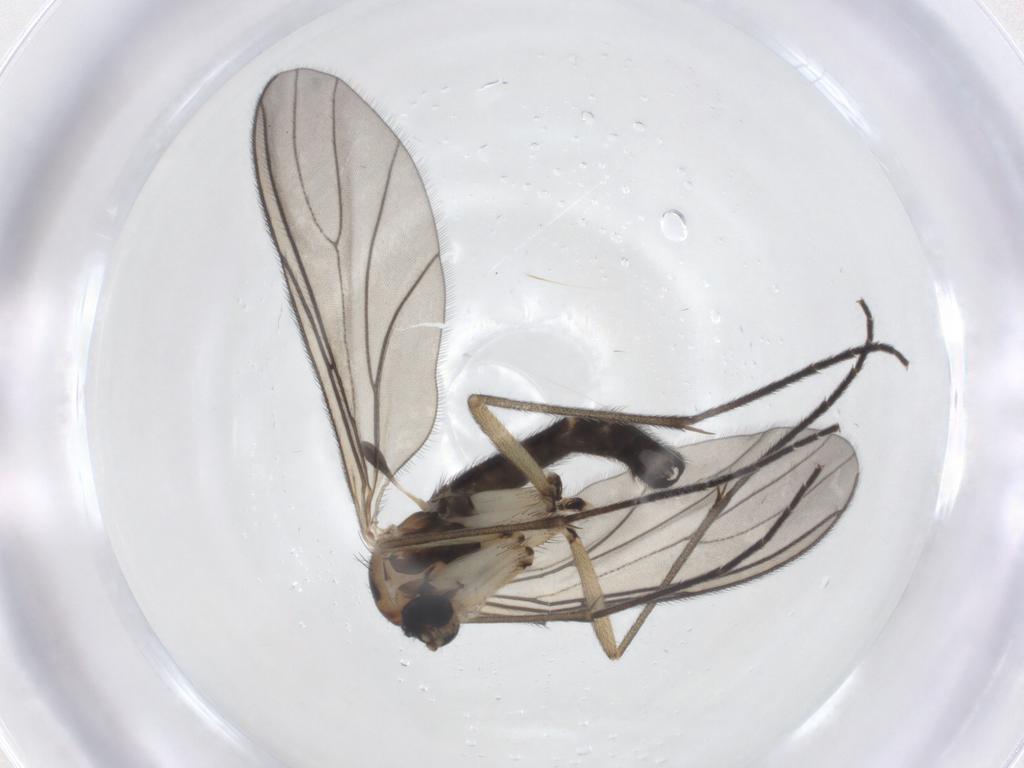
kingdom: Animalia
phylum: Arthropoda
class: Insecta
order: Diptera
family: Sciaridae
